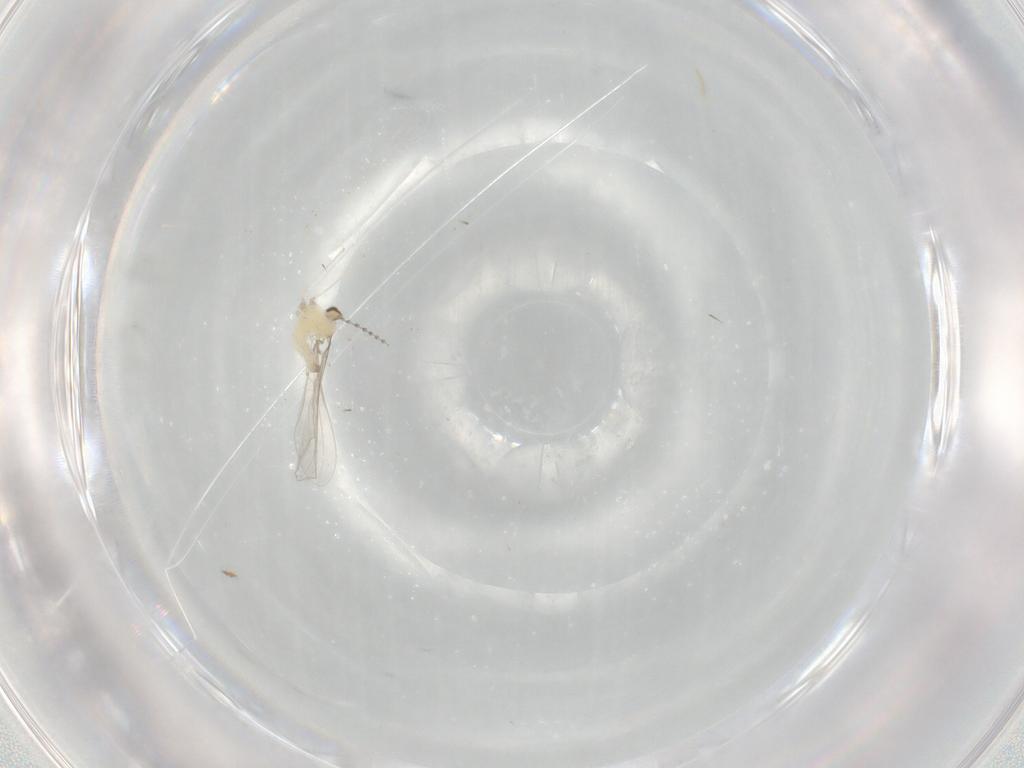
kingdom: Animalia
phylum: Arthropoda
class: Insecta
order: Diptera
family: Cecidomyiidae
